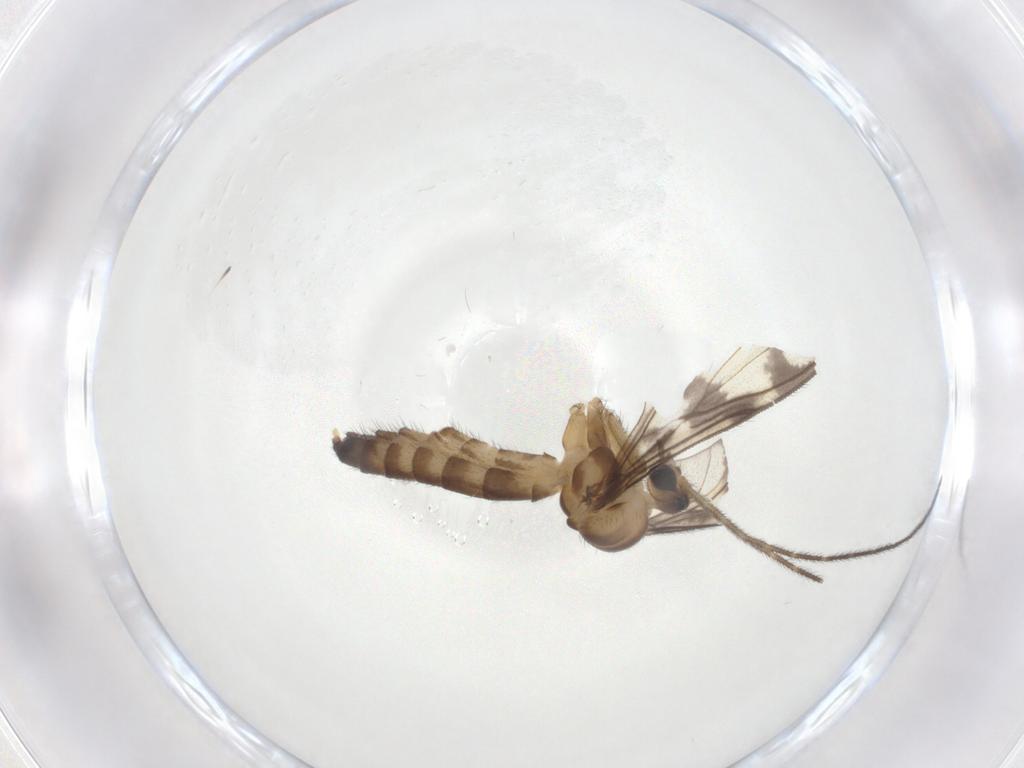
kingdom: Animalia
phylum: Arthropoda
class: Insecta
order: Diptera
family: Keroplatidae
